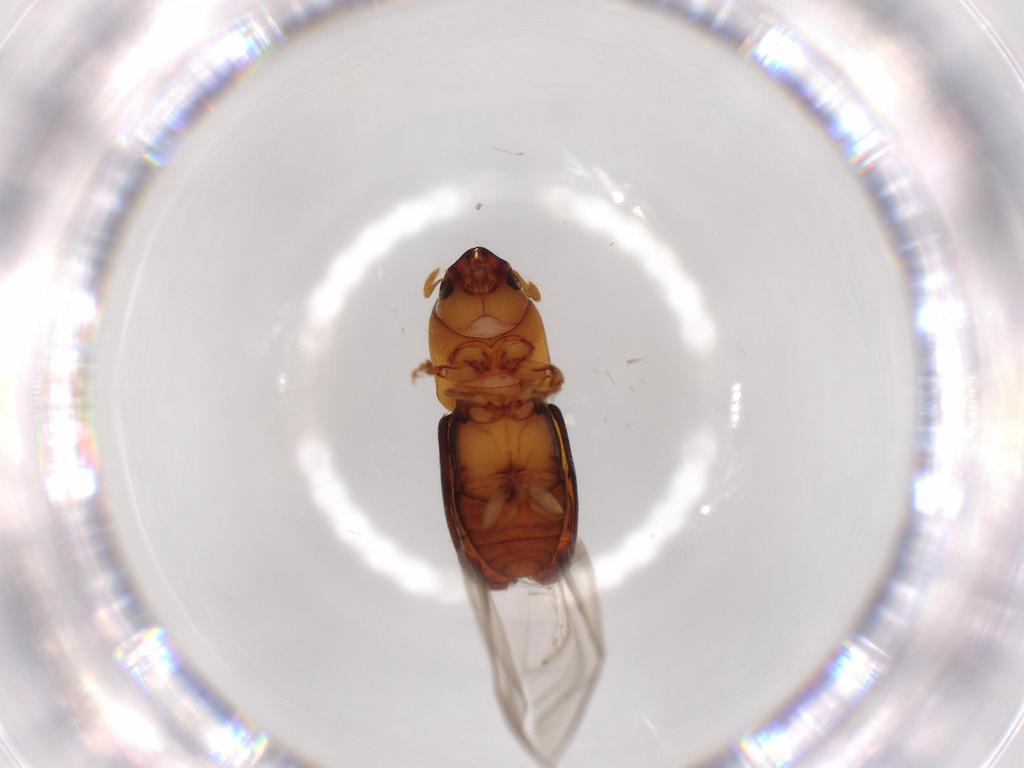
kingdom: Animalia
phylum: Arthropoda
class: Insecta
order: Coleoptera
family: Curculionidae
